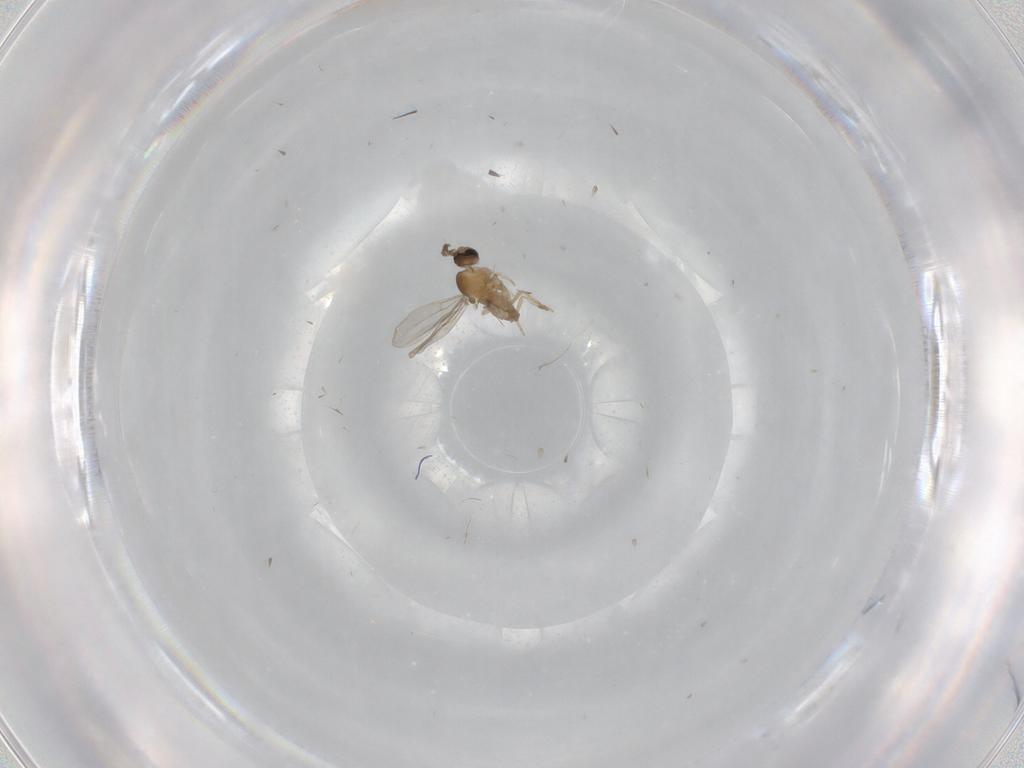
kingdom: Animalia
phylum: Arthropoda
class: Insecta
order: Diptera
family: Cecidomyiidae
